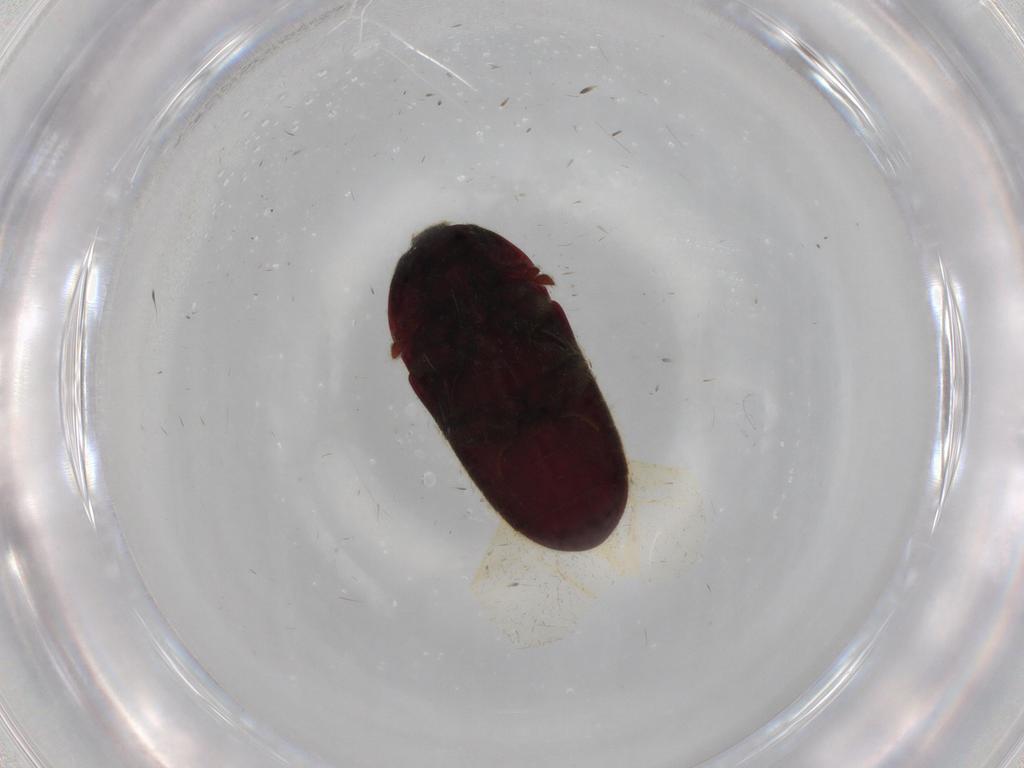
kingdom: Animalia
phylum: Arthropoda
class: Insecta
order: Coleoptera
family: Throscidae
